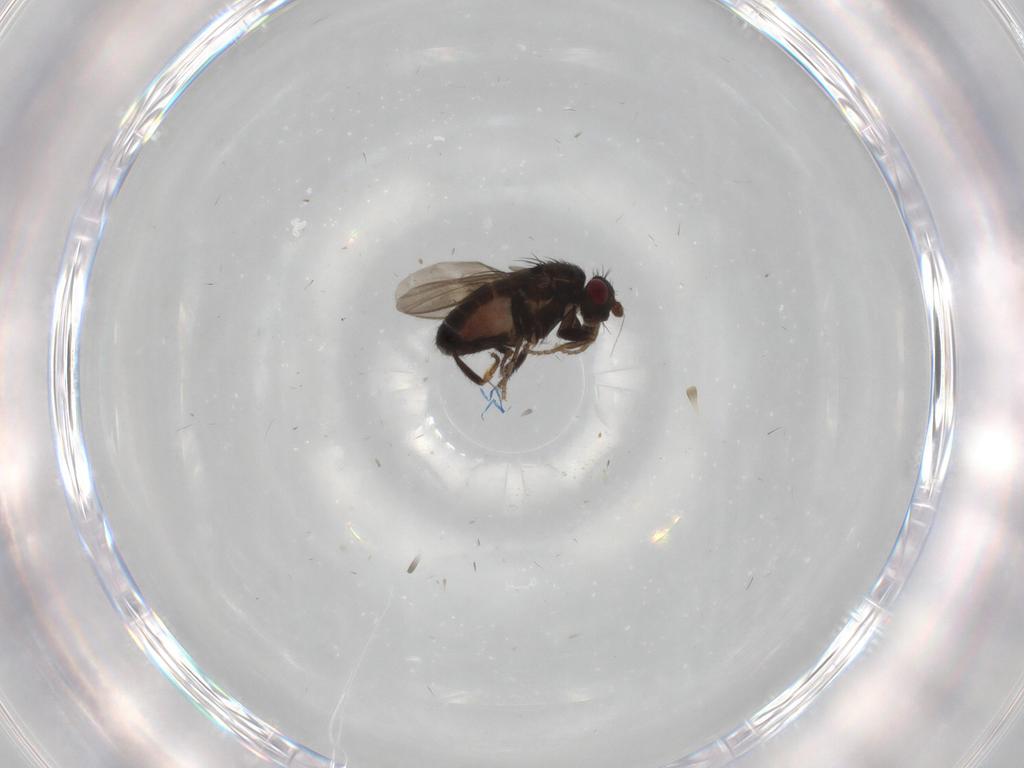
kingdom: Animalia
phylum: Arthropoda
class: Insecta
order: Diptera
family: Sphaeroceridae
